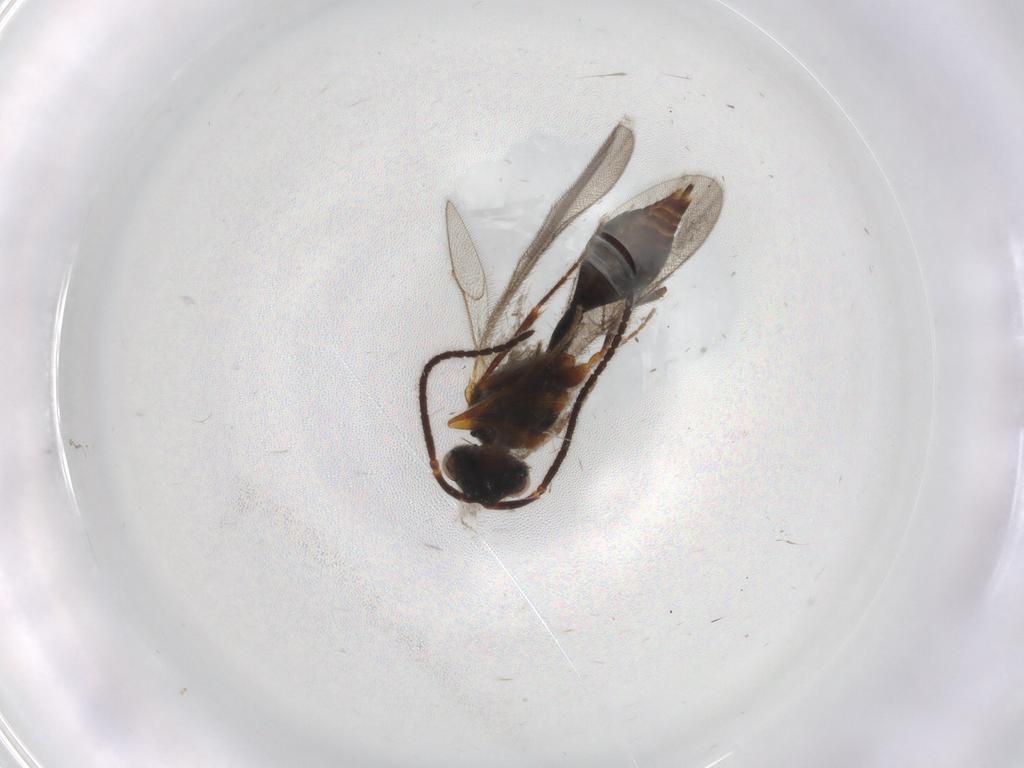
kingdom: Animalia
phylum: Arthropoda
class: Insecta
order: Hymenoptera
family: Diapriidae
